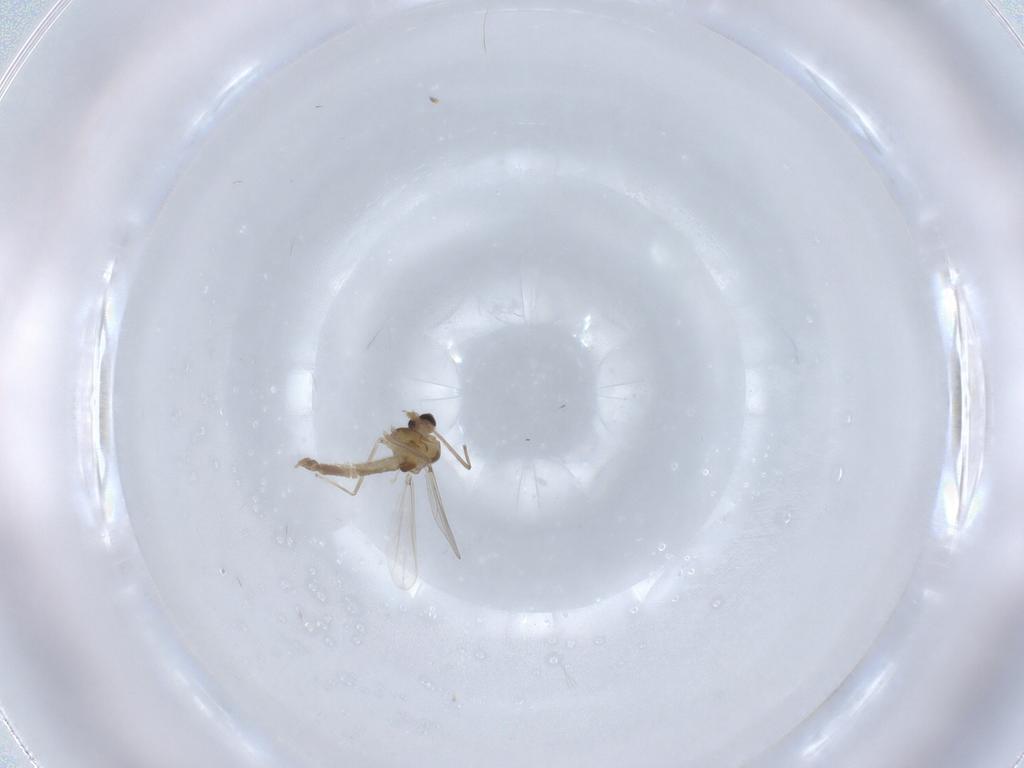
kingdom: Animalia
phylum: Arthropoda
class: Insecta
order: Diptera
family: Chironomidae
